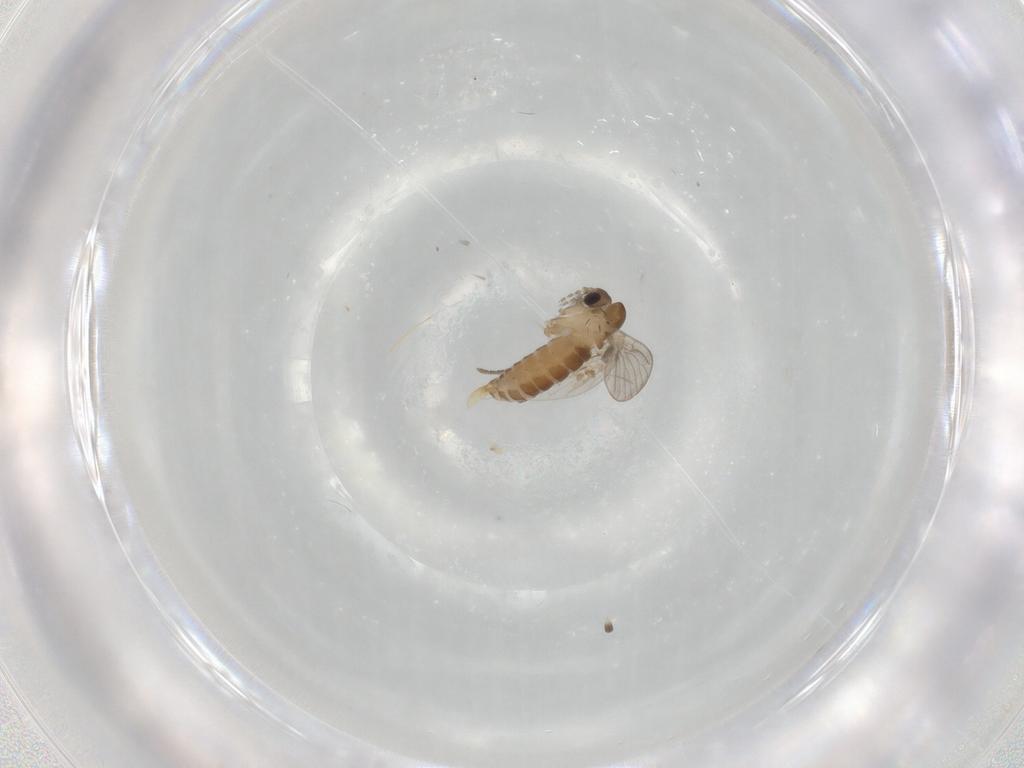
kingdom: Animalia
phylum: Arthropoda
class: Insecta
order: Diptera
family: Psychodidae
